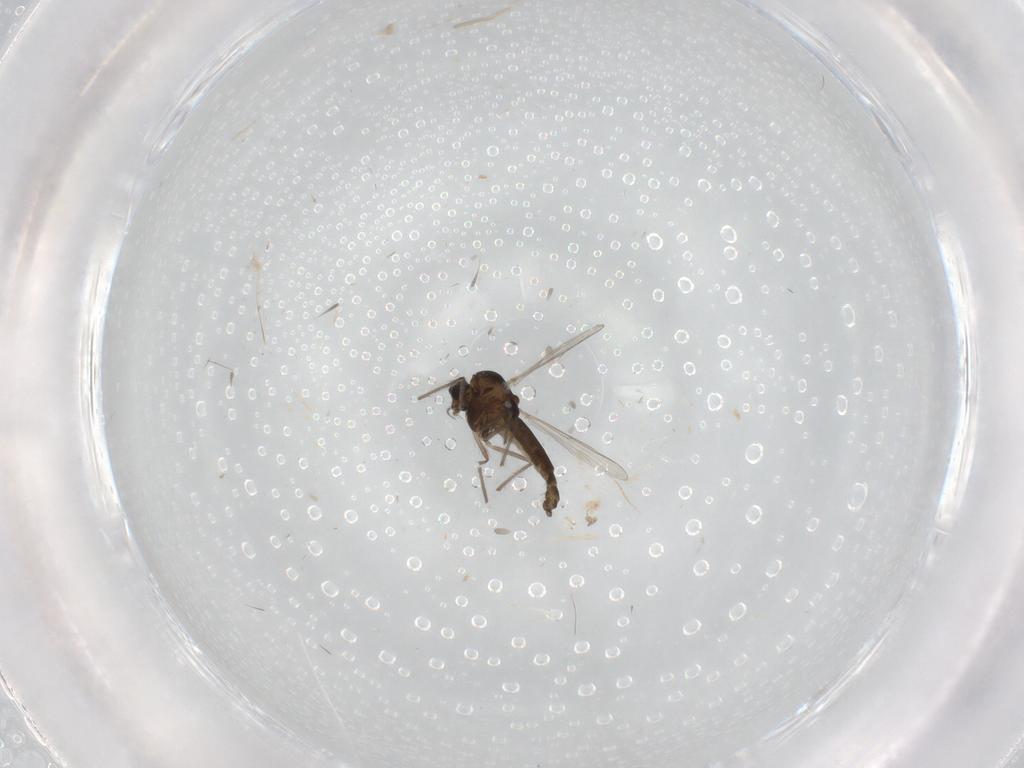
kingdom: Animalia
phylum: Arthropoda
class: Insecta
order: Diptera
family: Chironomidae
